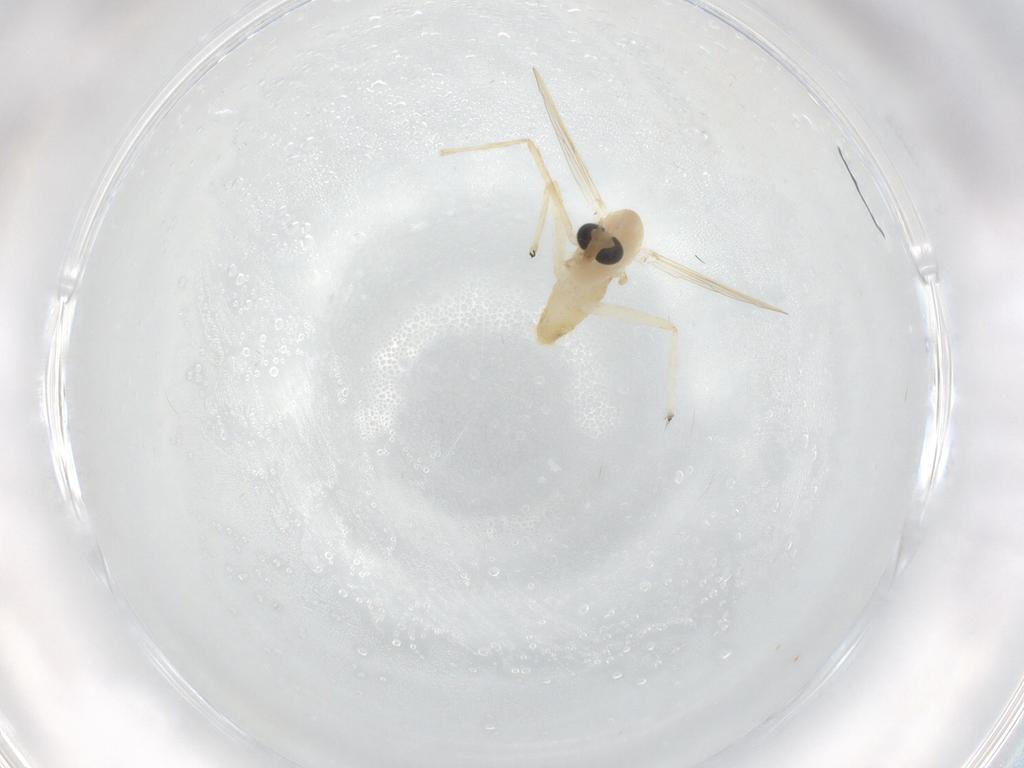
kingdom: Animalia
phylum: Arthropoda
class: Insecta
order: Diptera
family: Chironomidae
